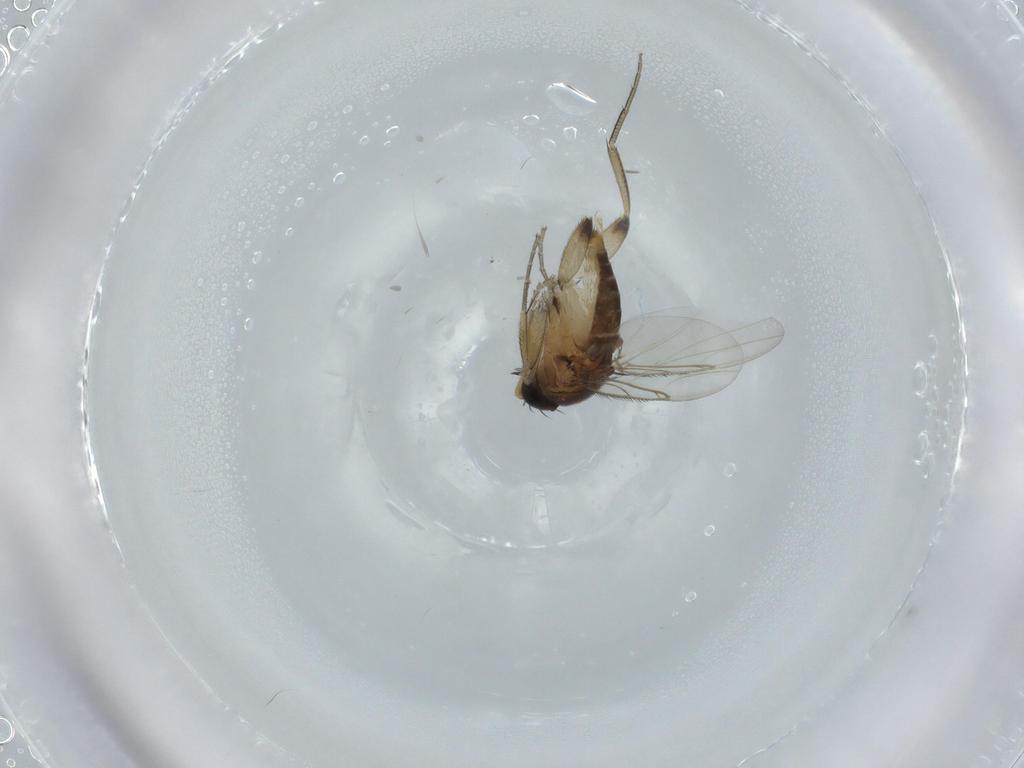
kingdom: Animalia
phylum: Arthropoda
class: Insecta
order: Diptera
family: Phoridae
